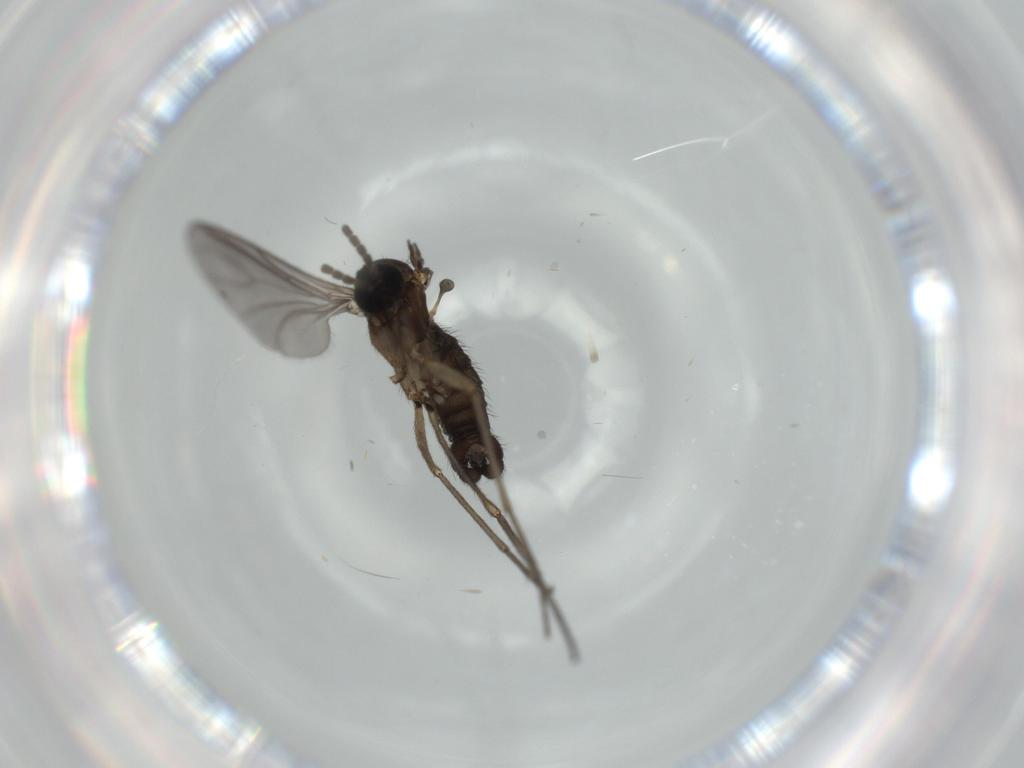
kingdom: Animalia
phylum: Arthropoda
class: Insecta
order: Diptera
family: Sciaridae
